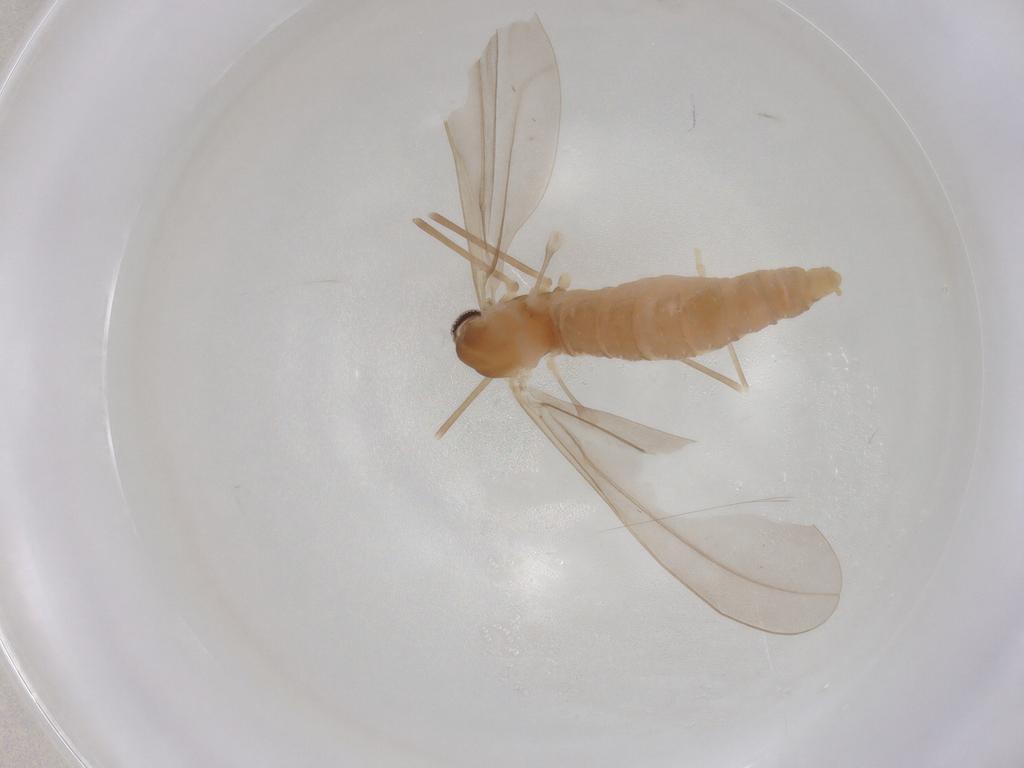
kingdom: Animalia
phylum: Arthropoda
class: Insecta
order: Diptera
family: Cecidomyiidae
